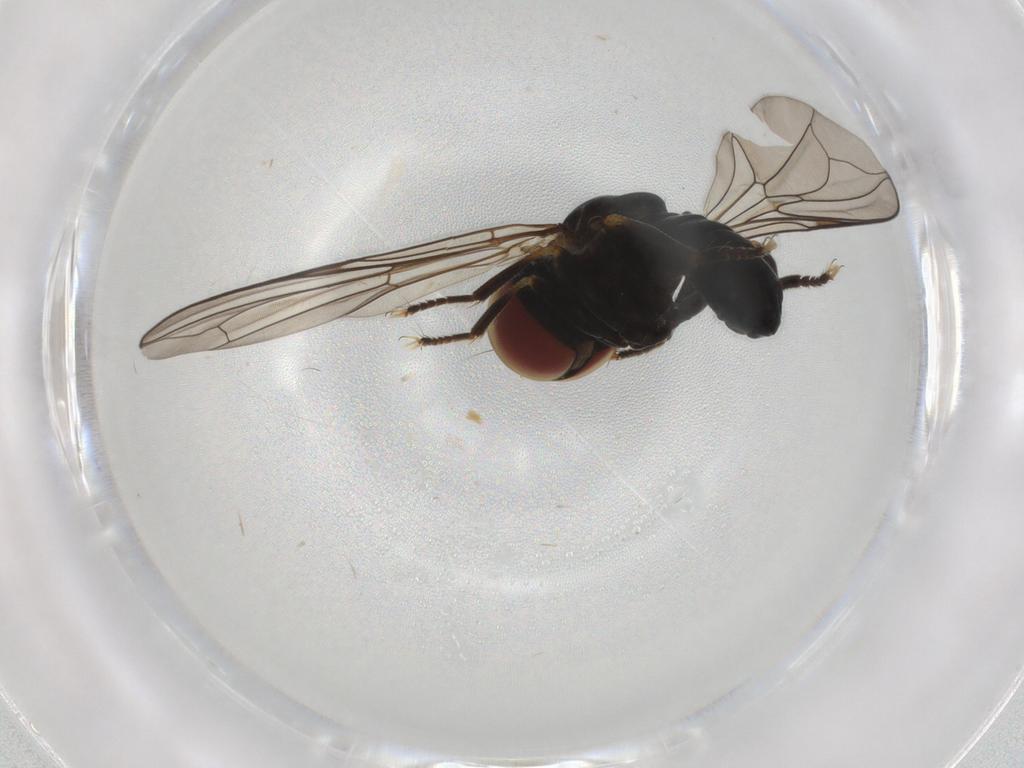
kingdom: Animalia
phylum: Arthropoda
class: Insecta
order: Diptera
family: Pipunculidae
